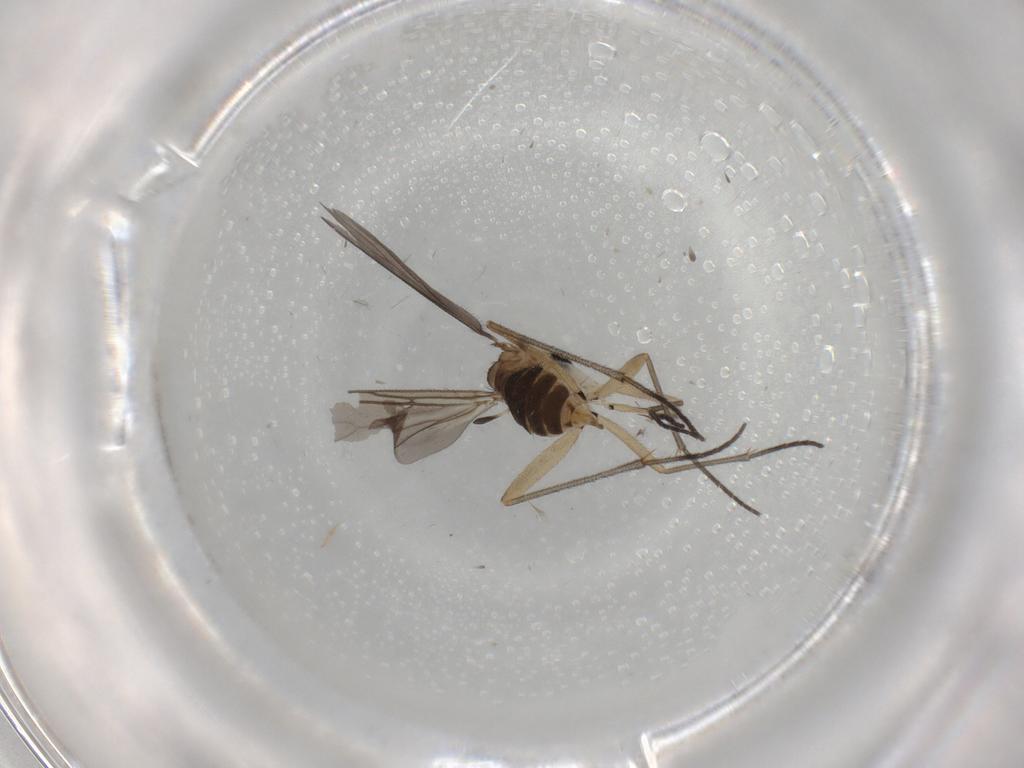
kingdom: Animalia
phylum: Arthropoda
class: Insecta
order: Diptera
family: Sciaridae
